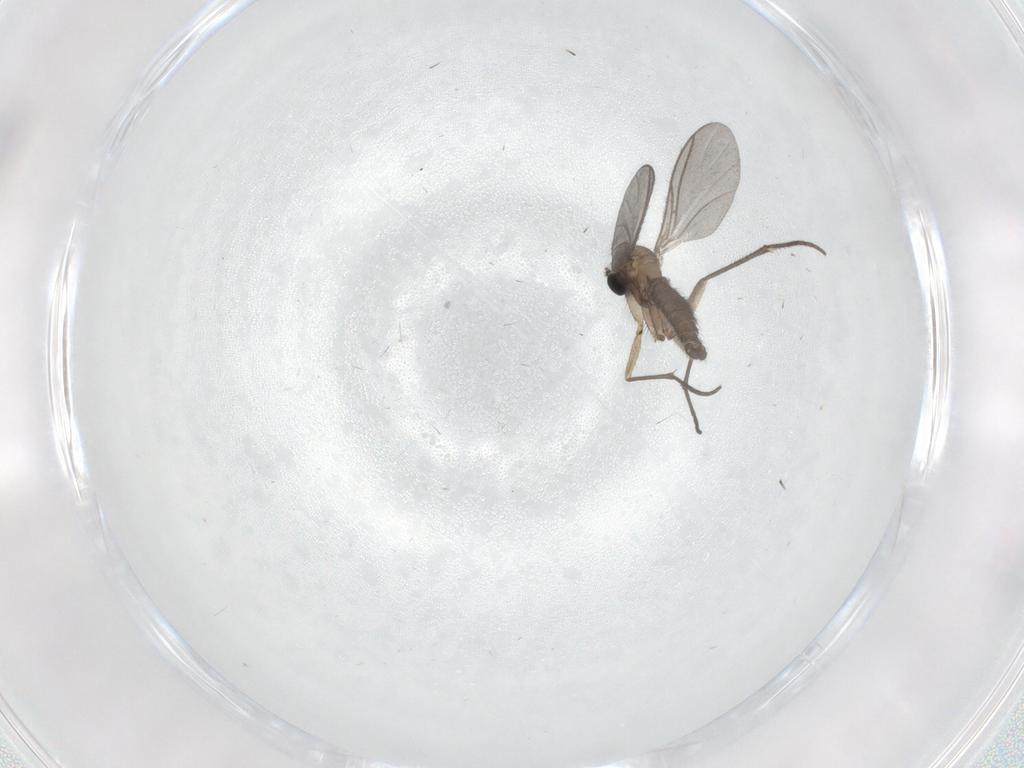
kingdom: Animalia
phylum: Arthropoda
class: Insecta
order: Diptera
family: Sciaridae
